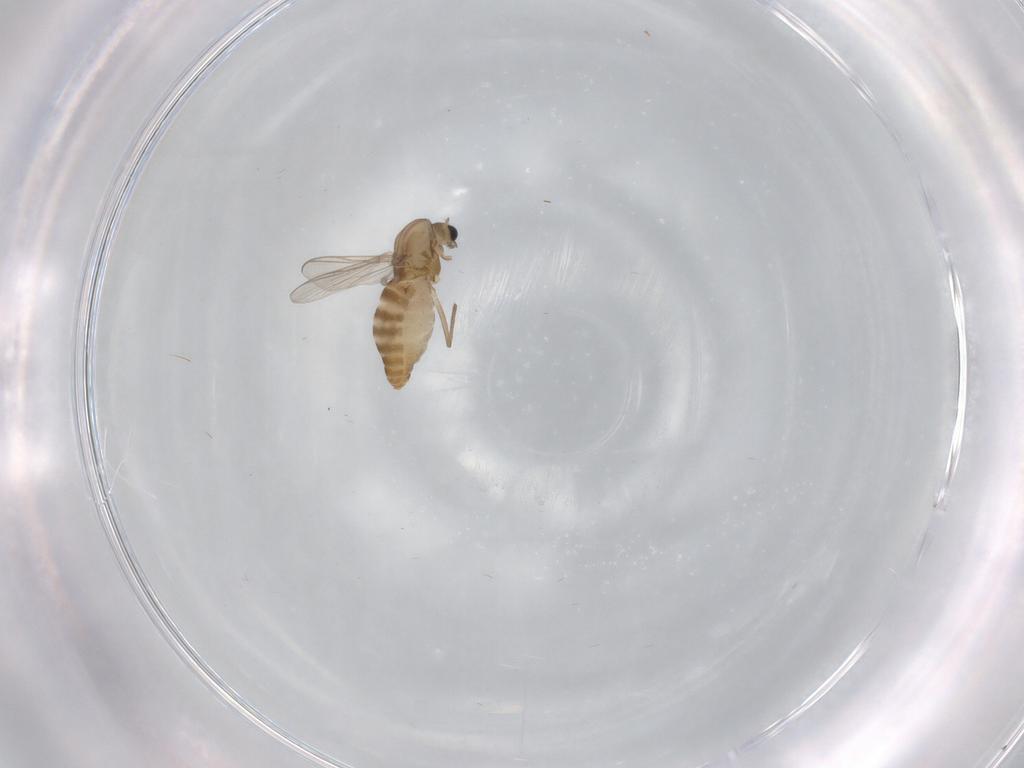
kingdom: Animalia
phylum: Arthropoda
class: Insecta
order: Diptera
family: Chironomidae
